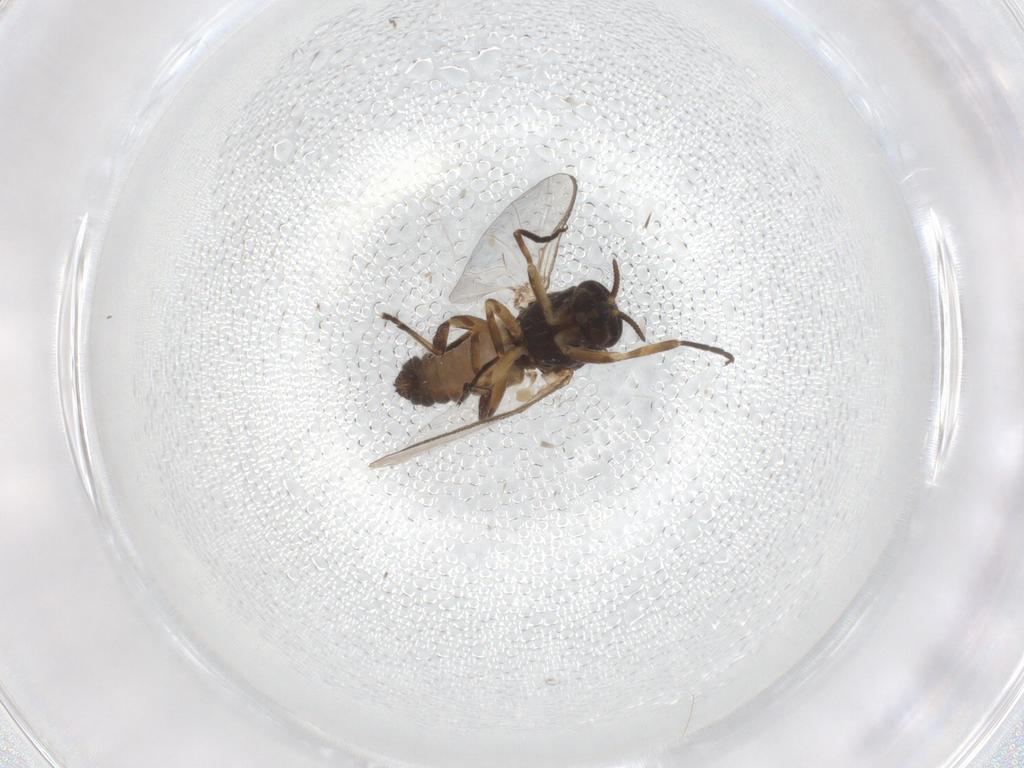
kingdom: Animalia
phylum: Arthropoda
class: Insecta
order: Diptera
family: Simuliidae
